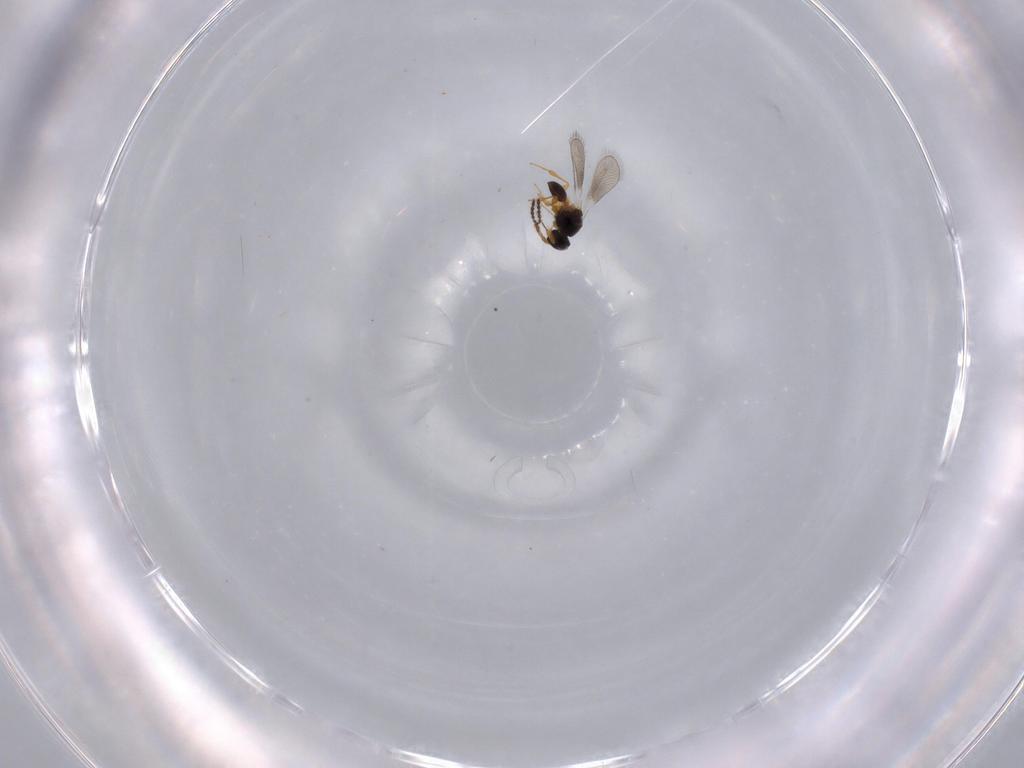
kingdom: Animalia
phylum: Arthropoda
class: Insecta
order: Hymenoptera
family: Platygastridae
